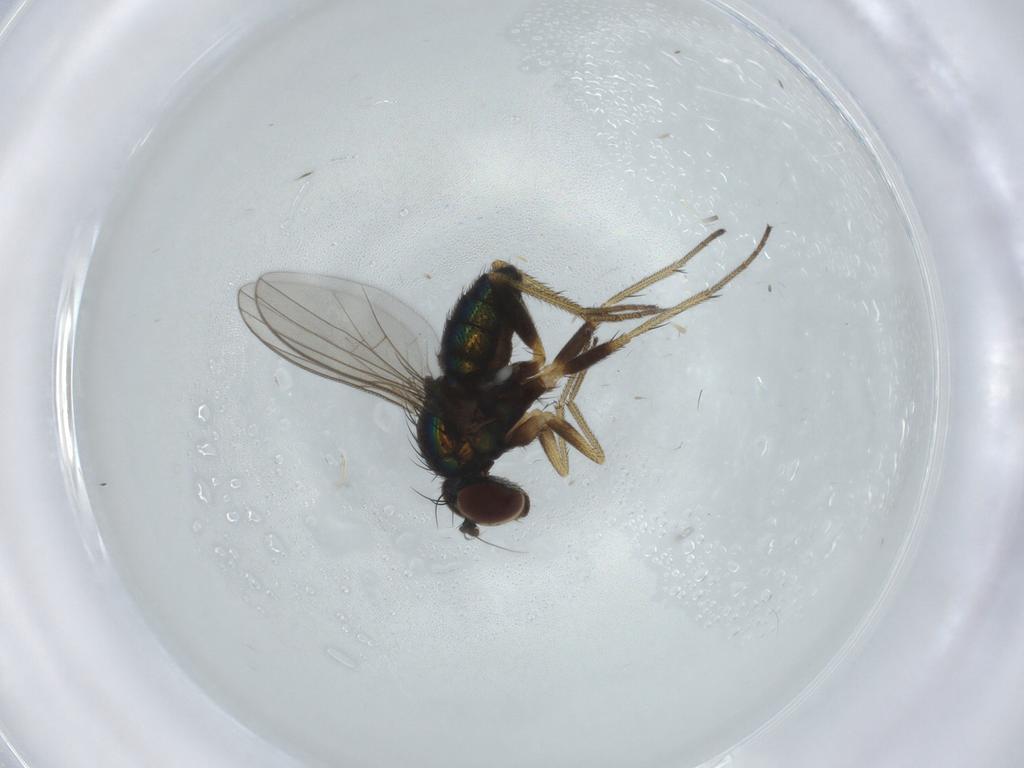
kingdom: Animalia
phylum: Arthropoda
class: Insecta
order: Diptera
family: Dolichopodidae
